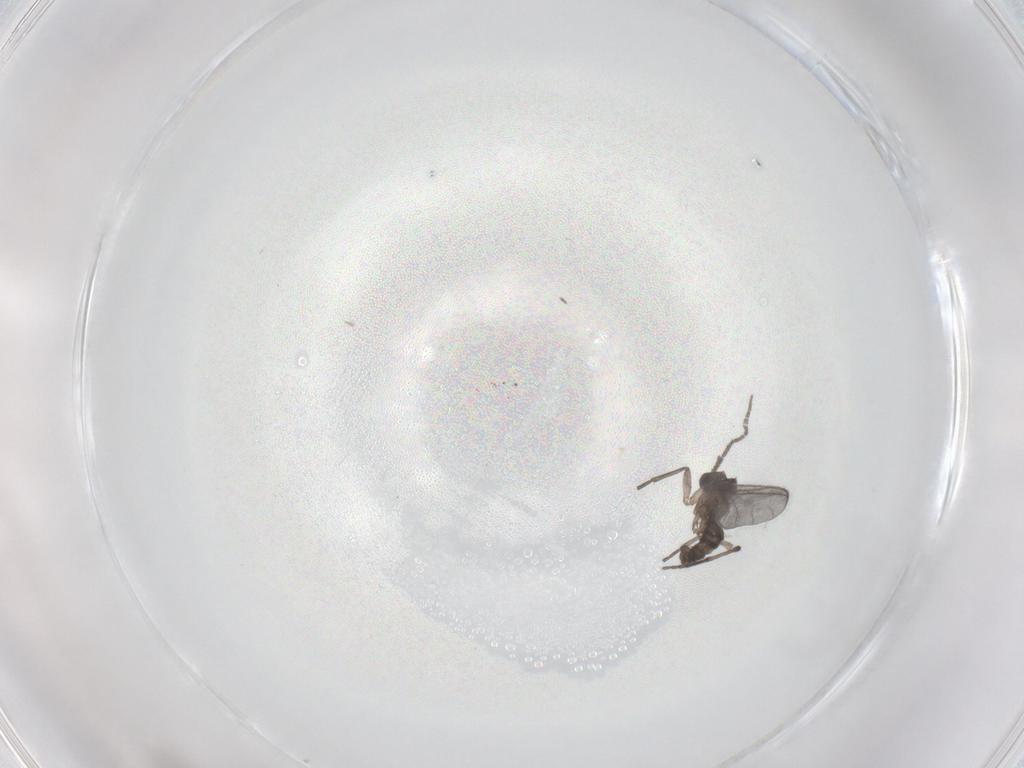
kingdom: Animalia
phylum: Arthropoda
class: Insecta
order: Diptera
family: Sciaridae
